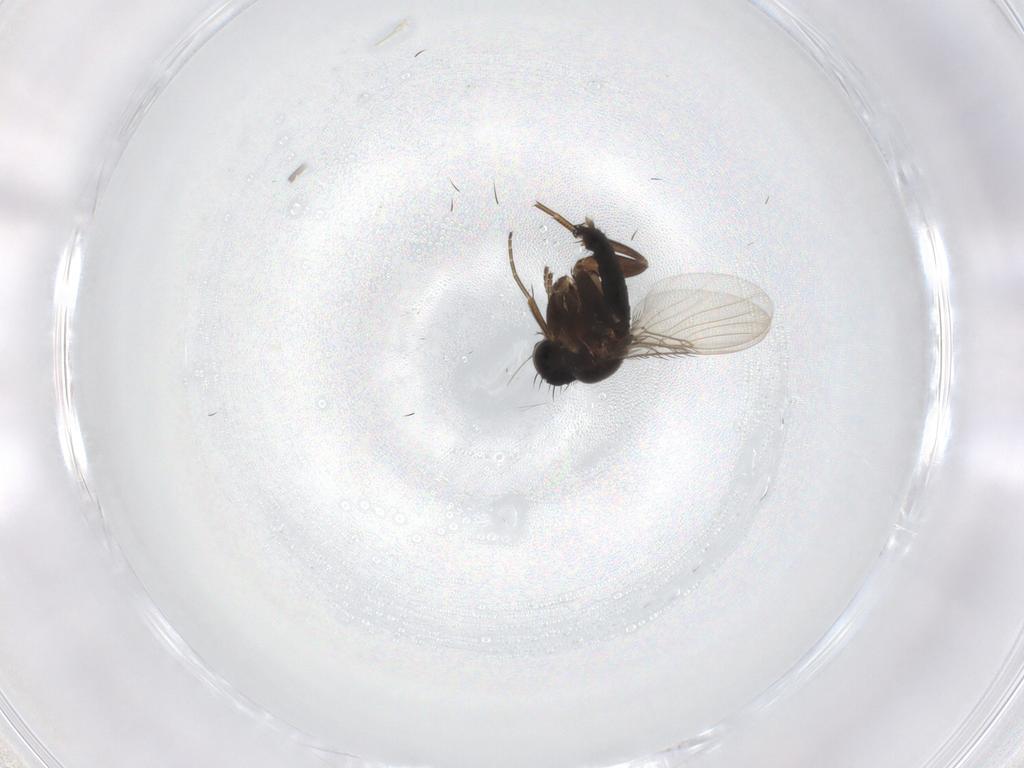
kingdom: Animalia
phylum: Arthropoda
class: Insecta
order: Diptera
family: Phoridae
